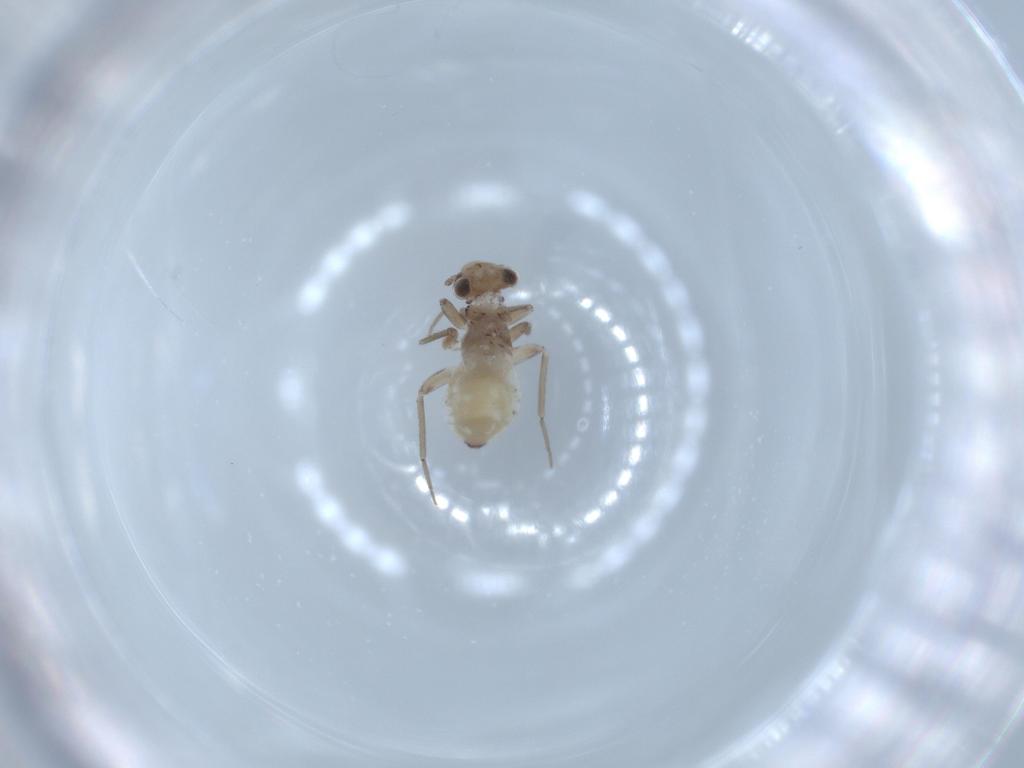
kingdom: Animalia
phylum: Arthropoda
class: Insecta
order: Psocodea
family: Lepidopsocidae
